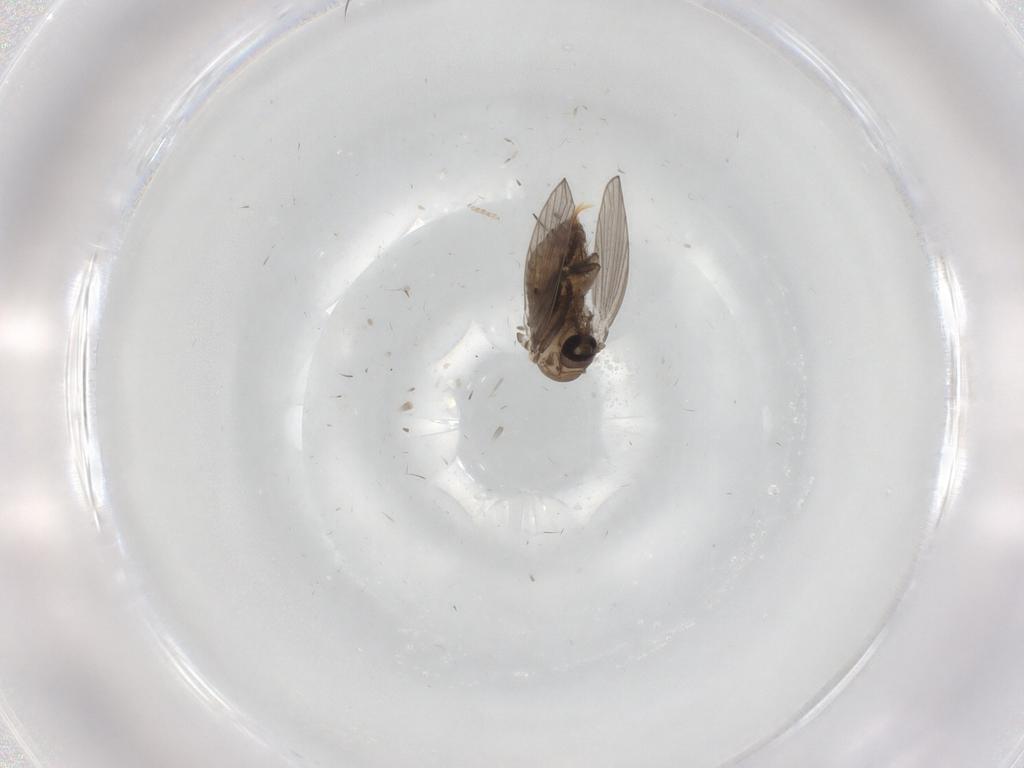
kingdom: Animalia
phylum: Arthropoda
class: Insecta
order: Diptera
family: Psychodidae
